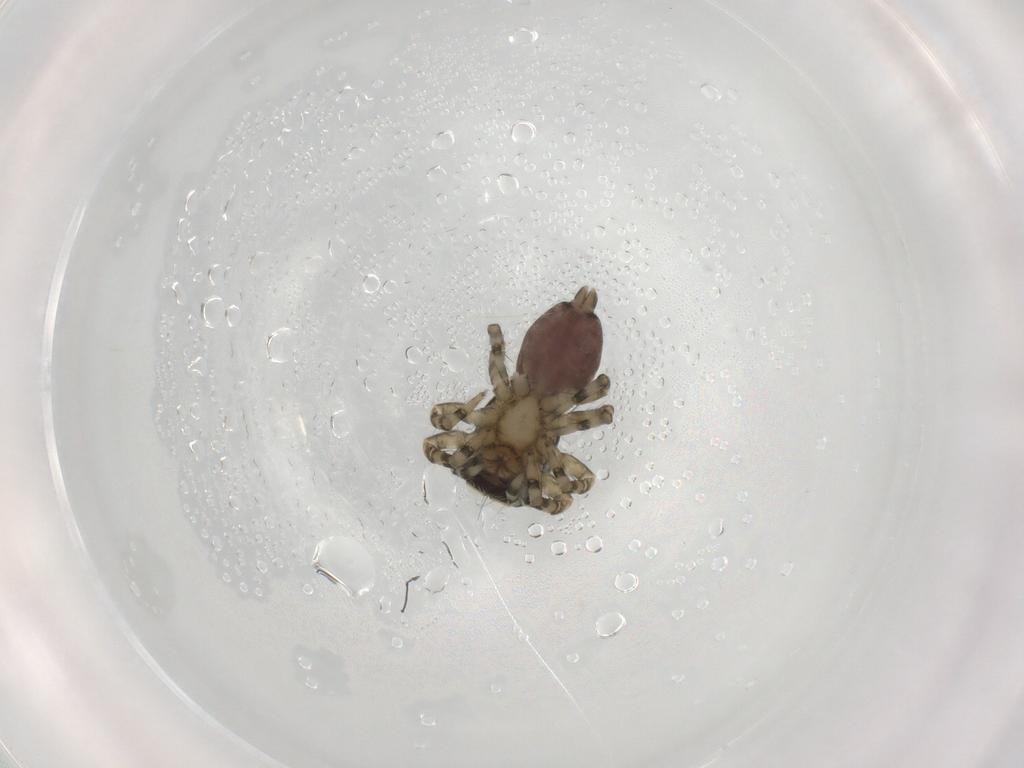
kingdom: Animalia
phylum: Arthropoda
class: Arachnida
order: Araneae
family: Salticidae
